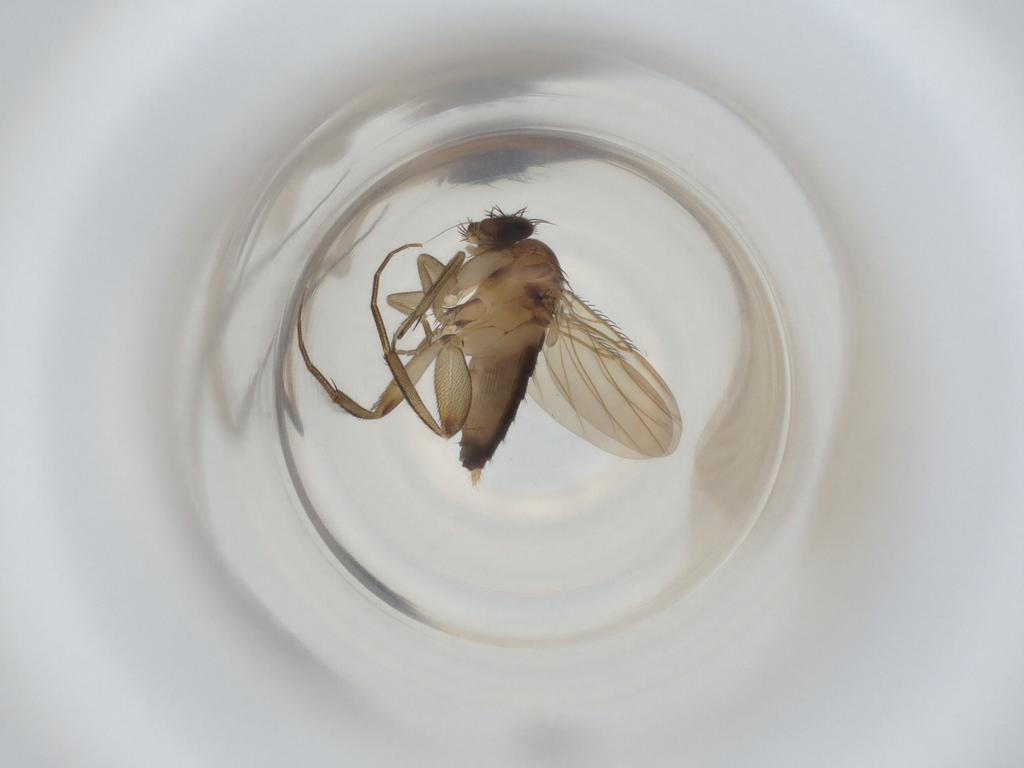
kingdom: Animalia
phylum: Arthropoda
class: Insecta
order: Diptera
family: Phoridae
